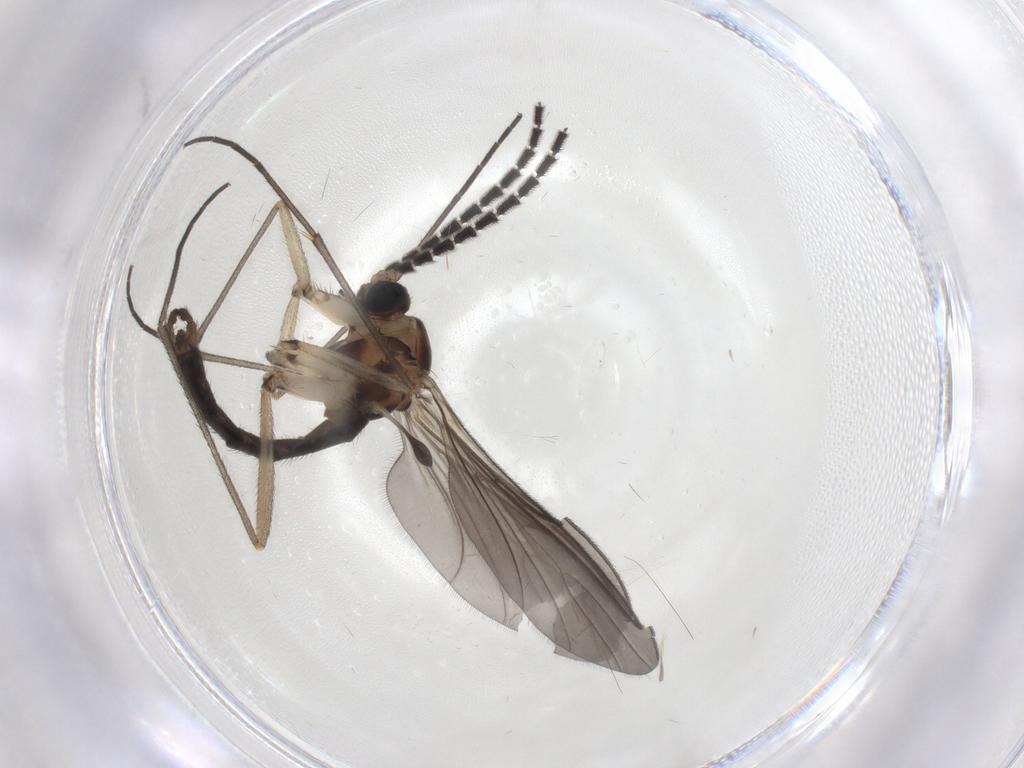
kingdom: Animalia
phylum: Arthropoda
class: Insecta
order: Diptera
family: Sciaridae
